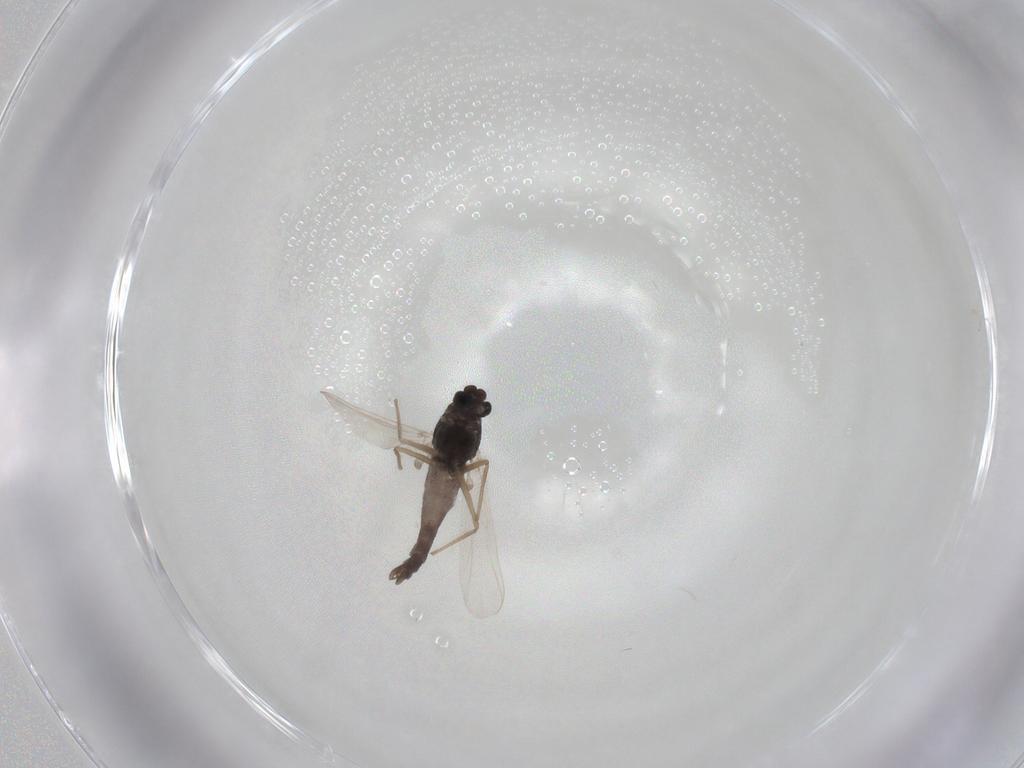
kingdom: Animalia
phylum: Arthropoda
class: Insecta
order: Diptera
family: Chironomidae
